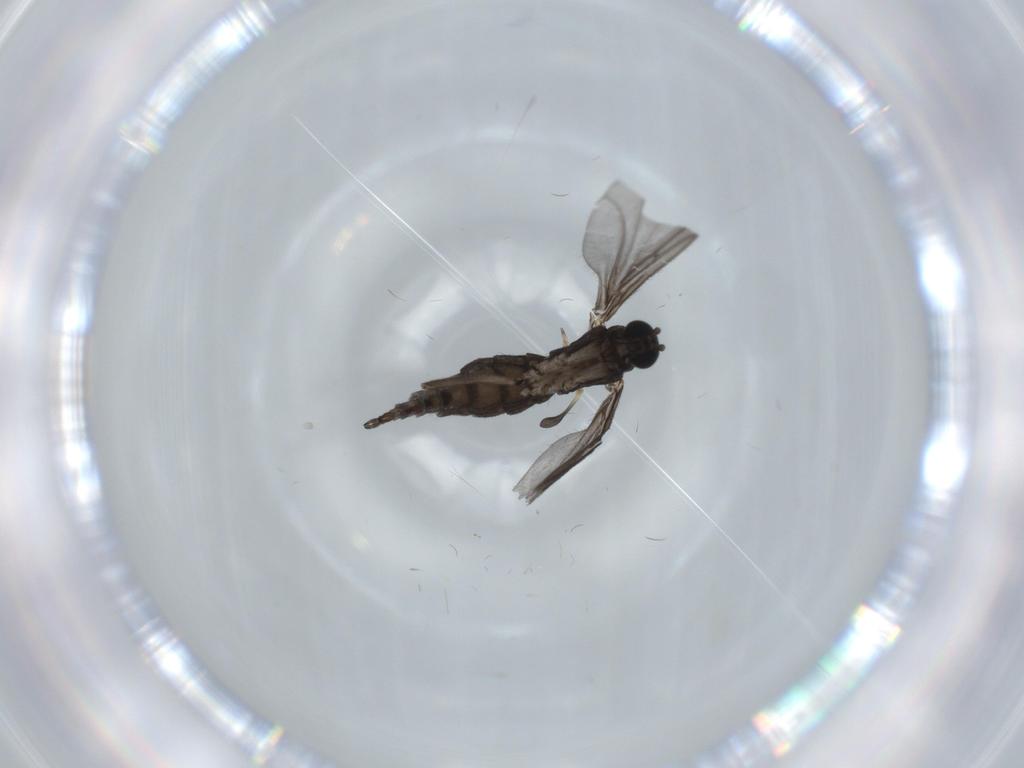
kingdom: Animalia
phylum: Arthropoda
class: Insecta
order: Diptera
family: Sciaridae
